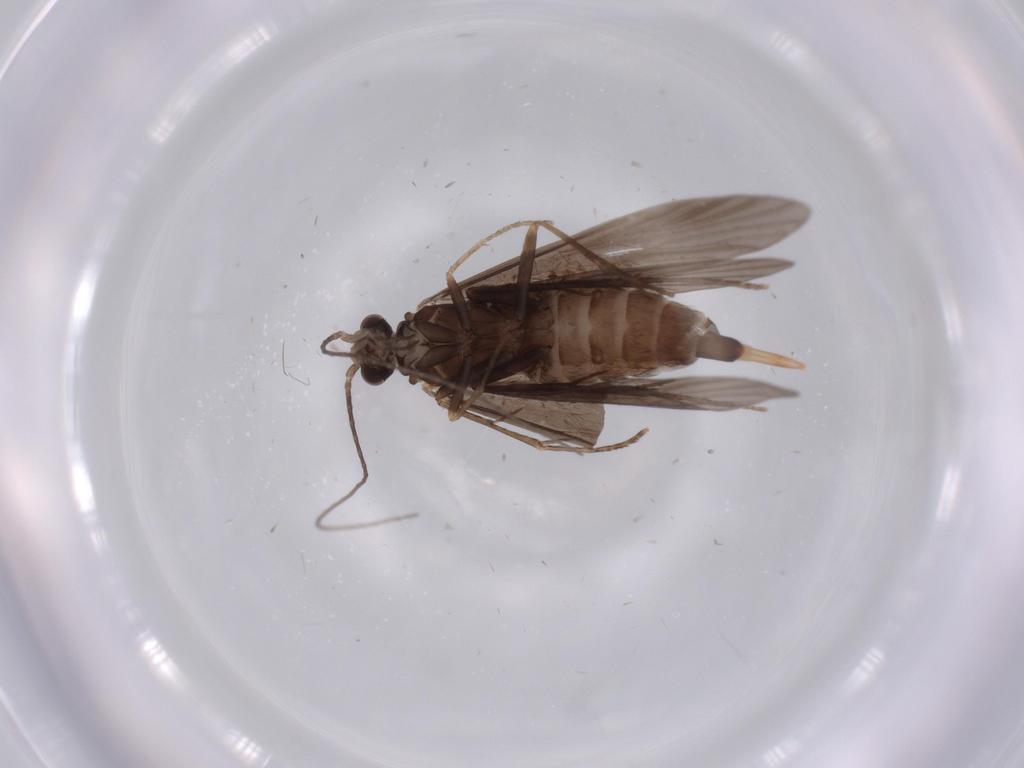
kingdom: Animalia
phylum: Arthropoda
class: Insecta
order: Trichoptera
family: Xiphocentronidae
